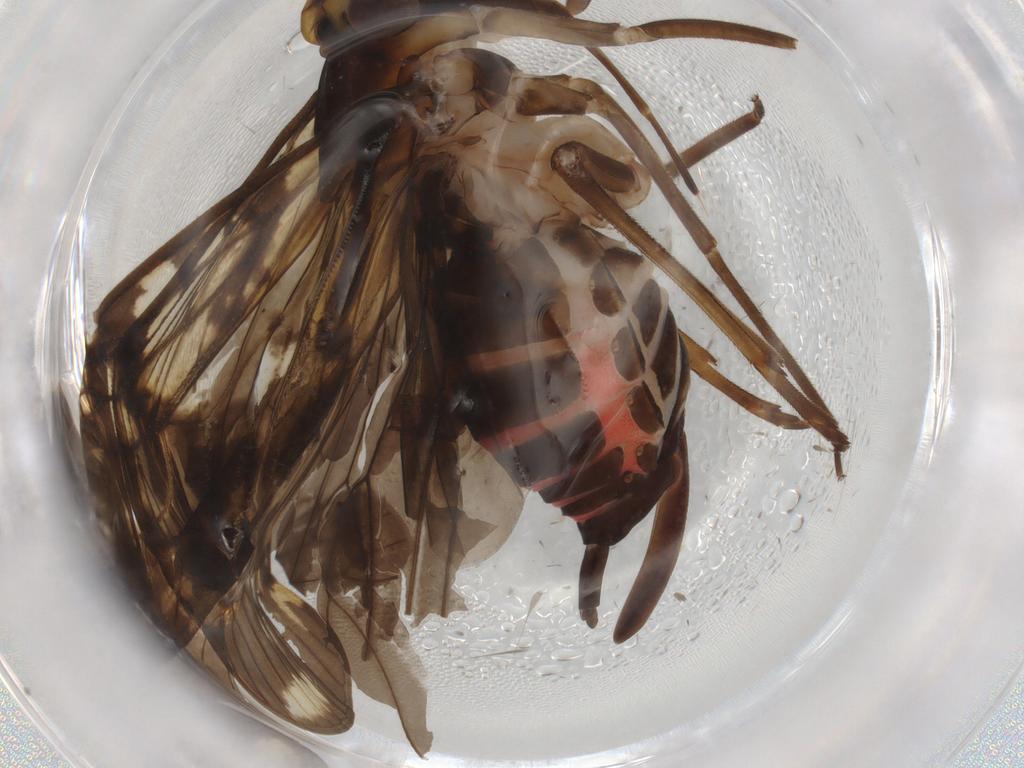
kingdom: Animalia
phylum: Arthropoda
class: Insecta
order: Hemiptera
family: Cixiidae
